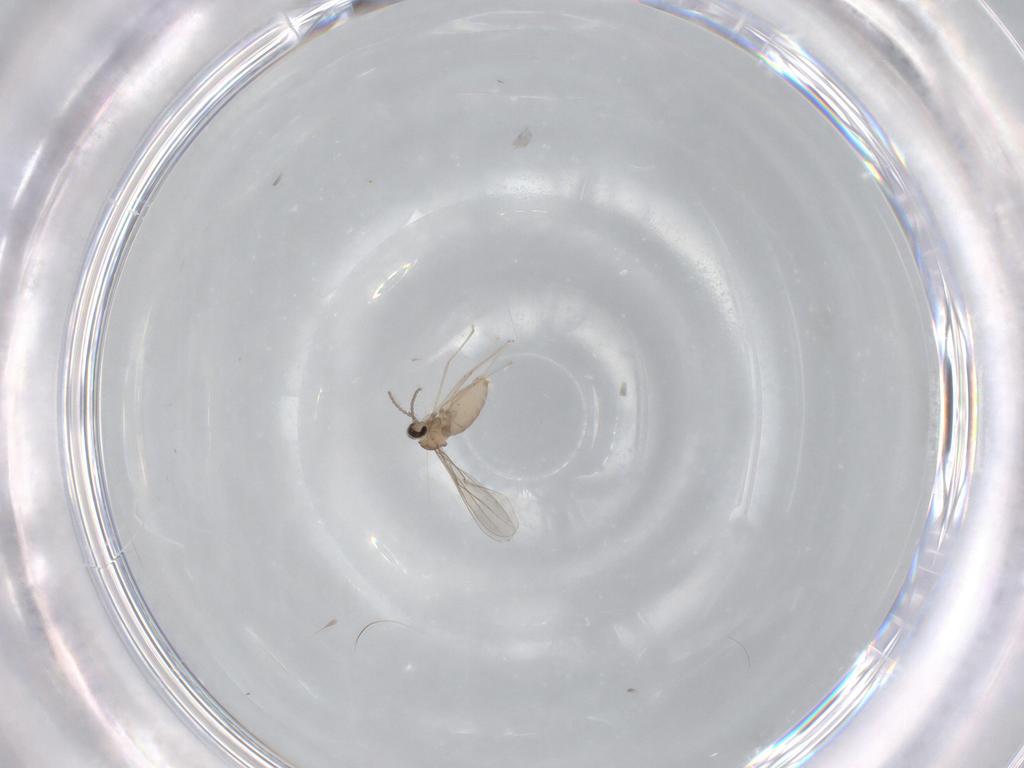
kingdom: Animalia
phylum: Arthropoda
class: Insecta
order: Diptera
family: Cecidomyiidae
